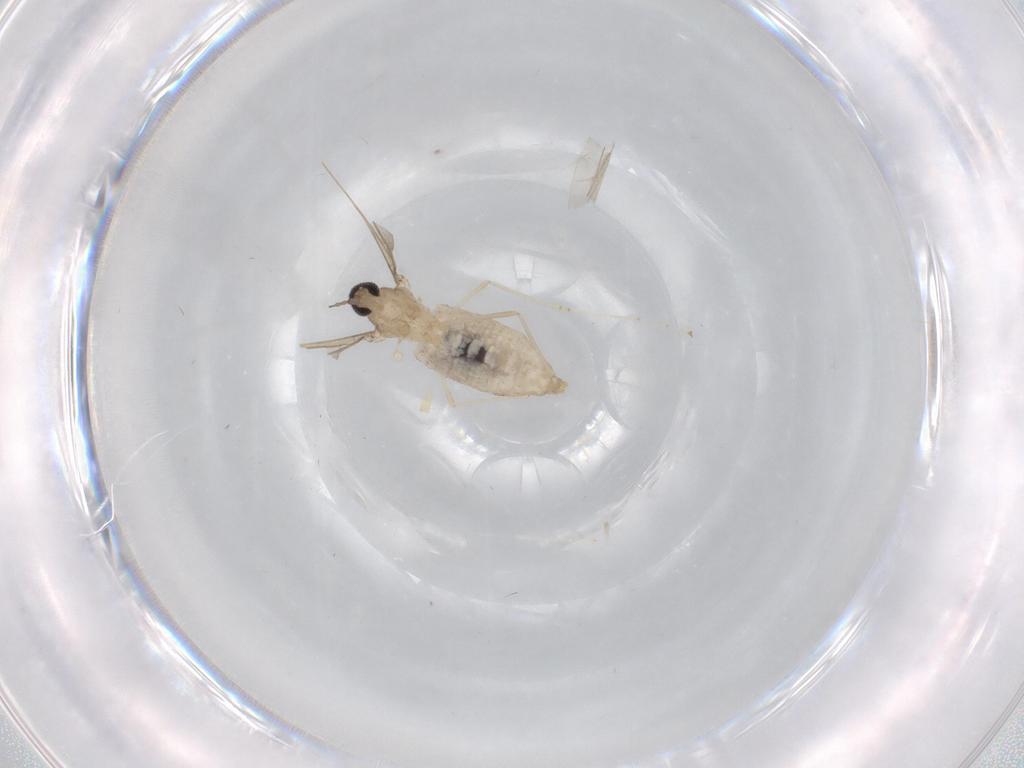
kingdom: Animalia
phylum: Arthropoda
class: Insecta
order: Diptera
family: Cecidomyiidae
